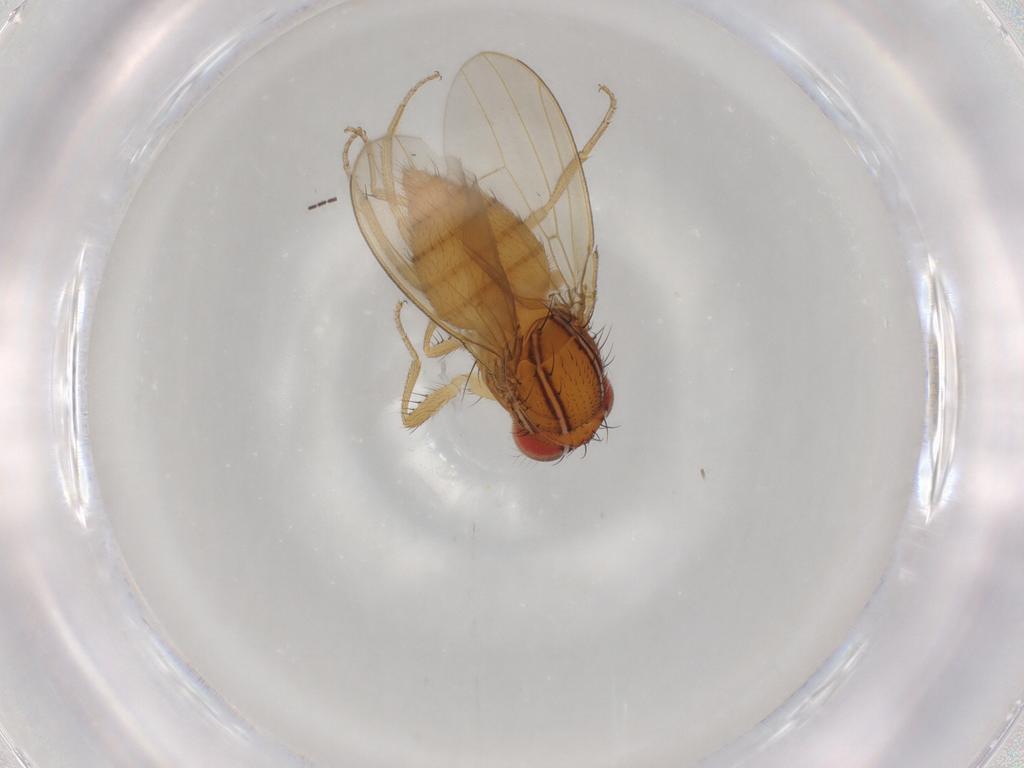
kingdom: Animalia
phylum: Arthropoda
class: Insecta
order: Diptera
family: Drosophilidae
